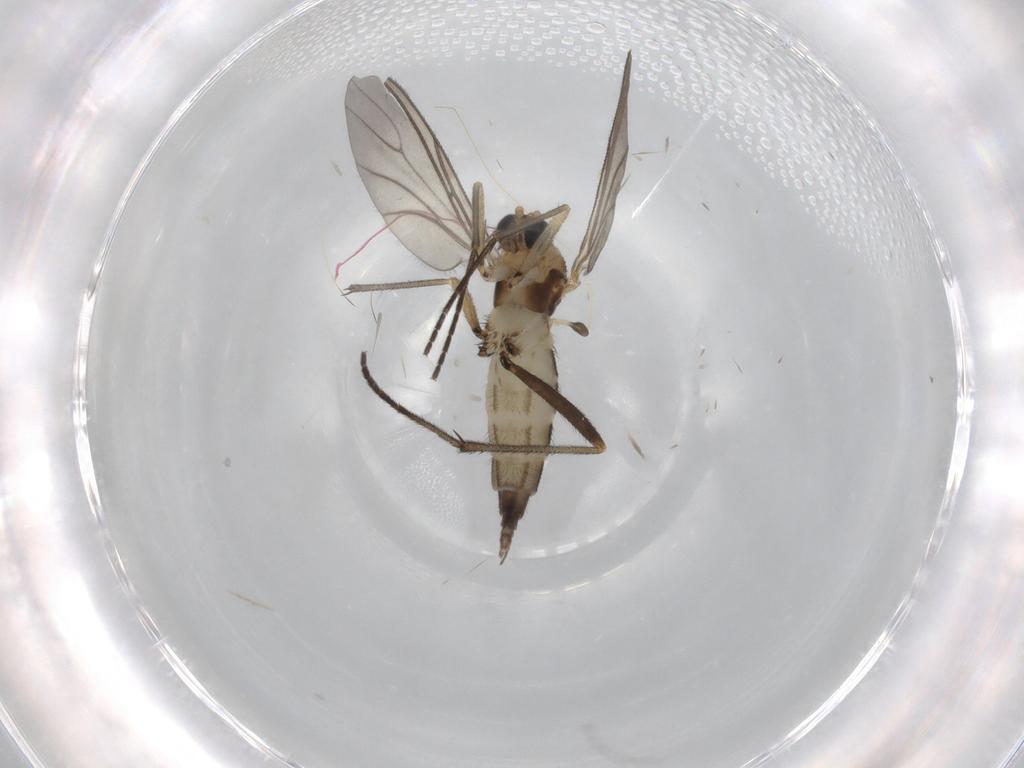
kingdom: Animalia
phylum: Arthropoda
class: Insecta
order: Diptera
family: Sciaridae
